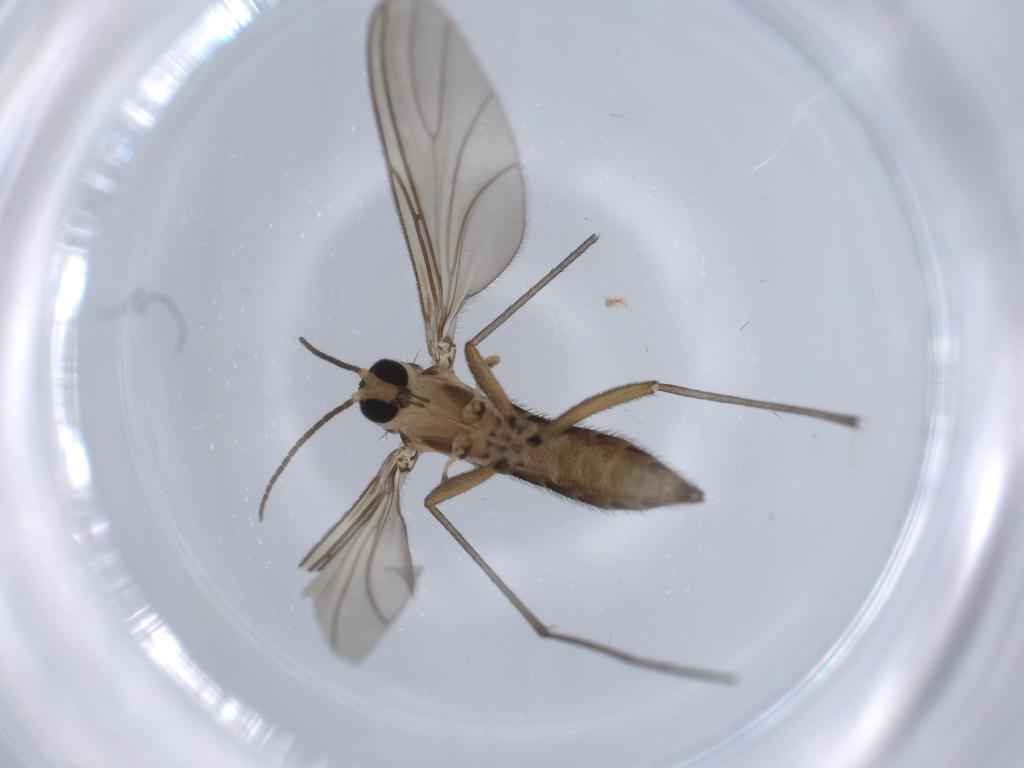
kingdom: Animalia
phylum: Arthropoda
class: Insecta
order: Diptera
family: Sciaridae
